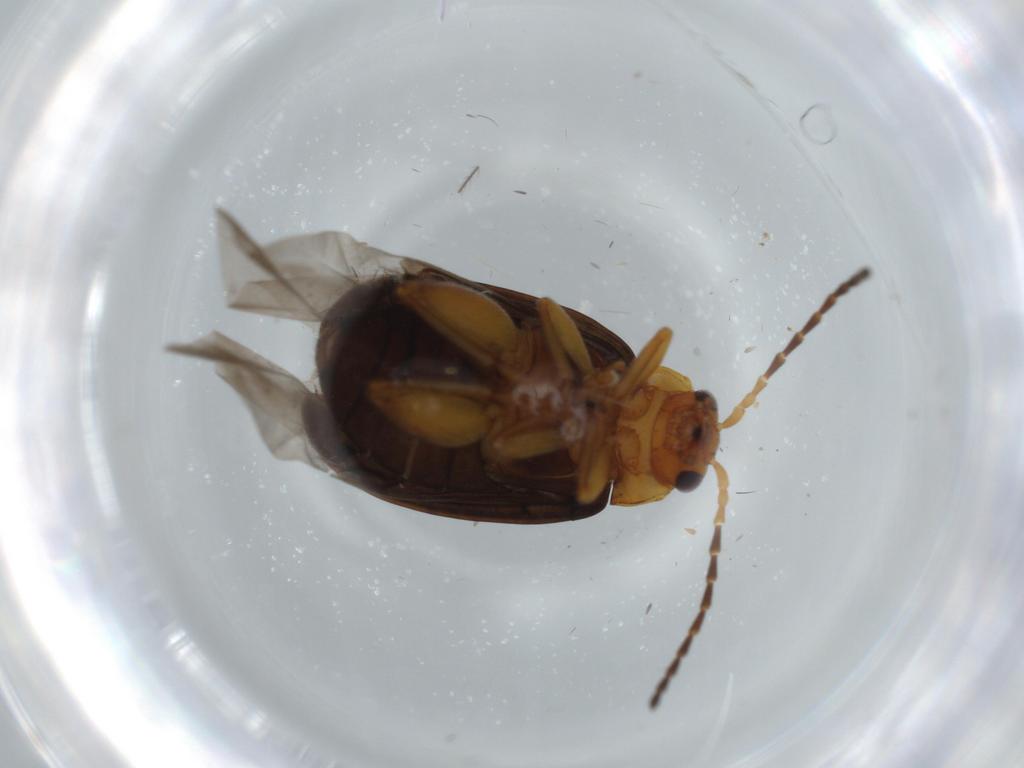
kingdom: Animalia
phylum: Arthropoda
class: Insecta
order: Coleoptera
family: Chrysomelidae
